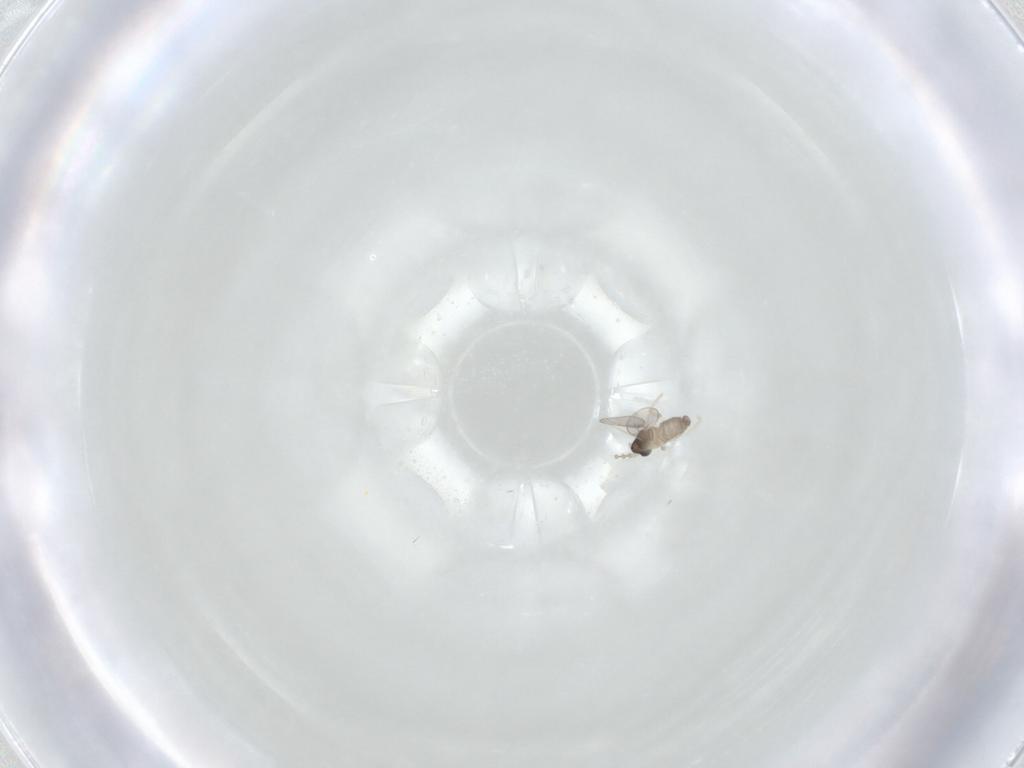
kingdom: Animalia
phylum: Arthropoda
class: Insecta
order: Diptera
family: Cecidomyiidae
